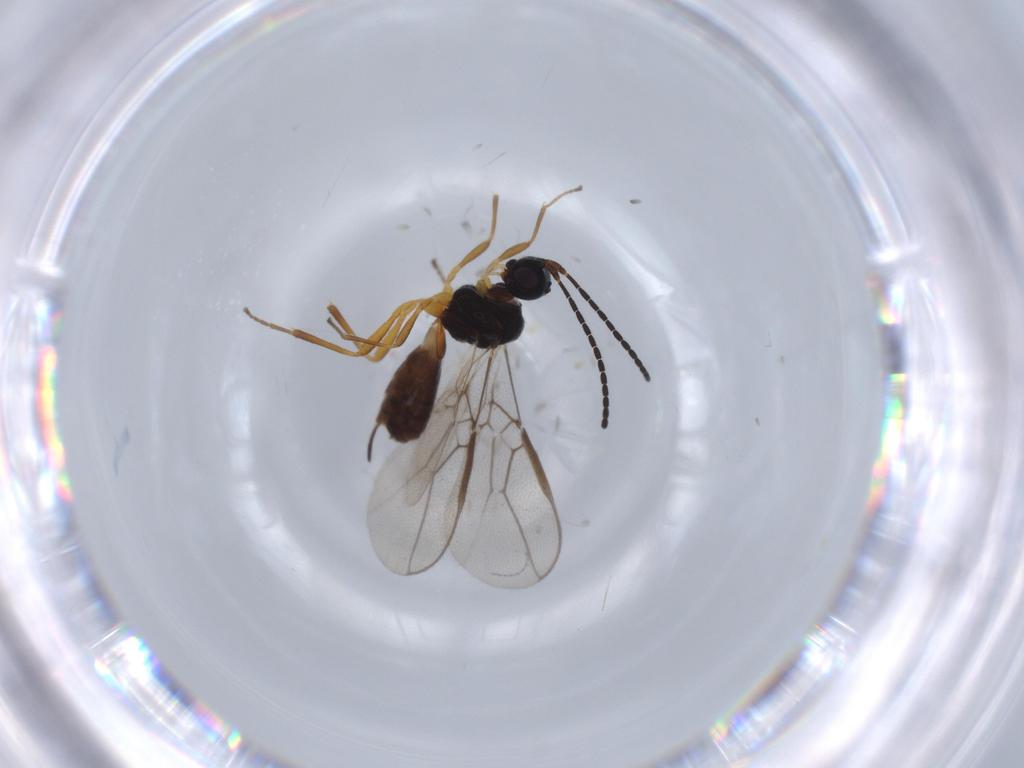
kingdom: Animalia
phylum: Arthropoda
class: Insecta
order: Hymenoptera
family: Braconidae
